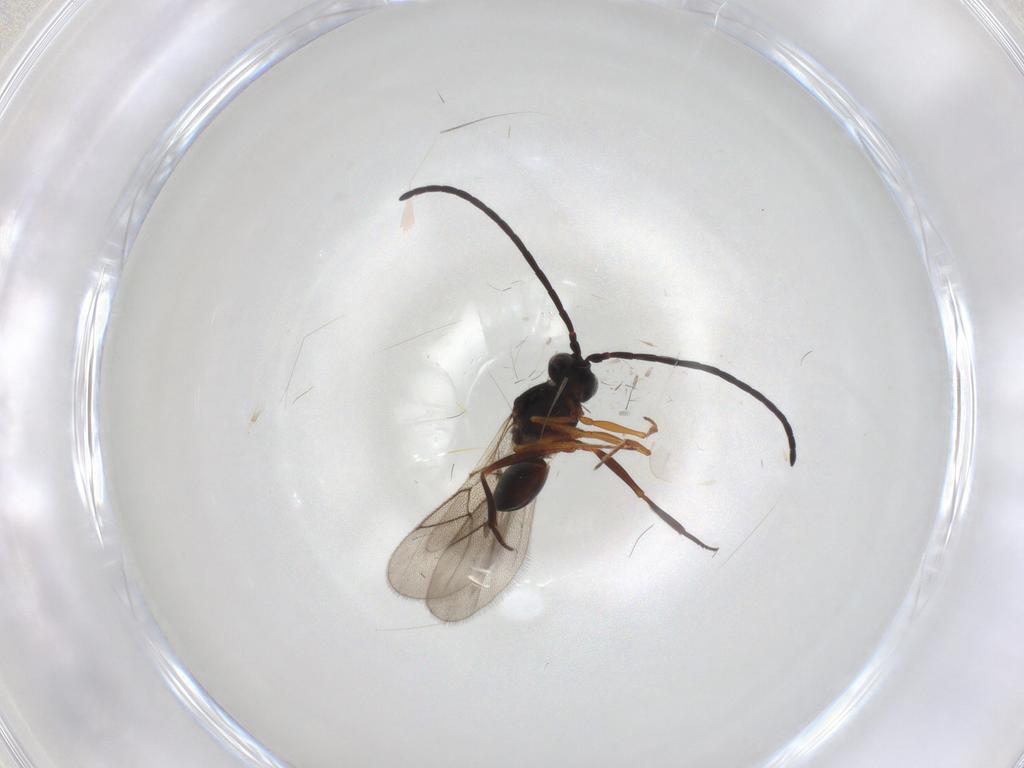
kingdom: Animalia
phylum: Arthropoda
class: Insecta
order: Hymenoptera
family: Figitidae
